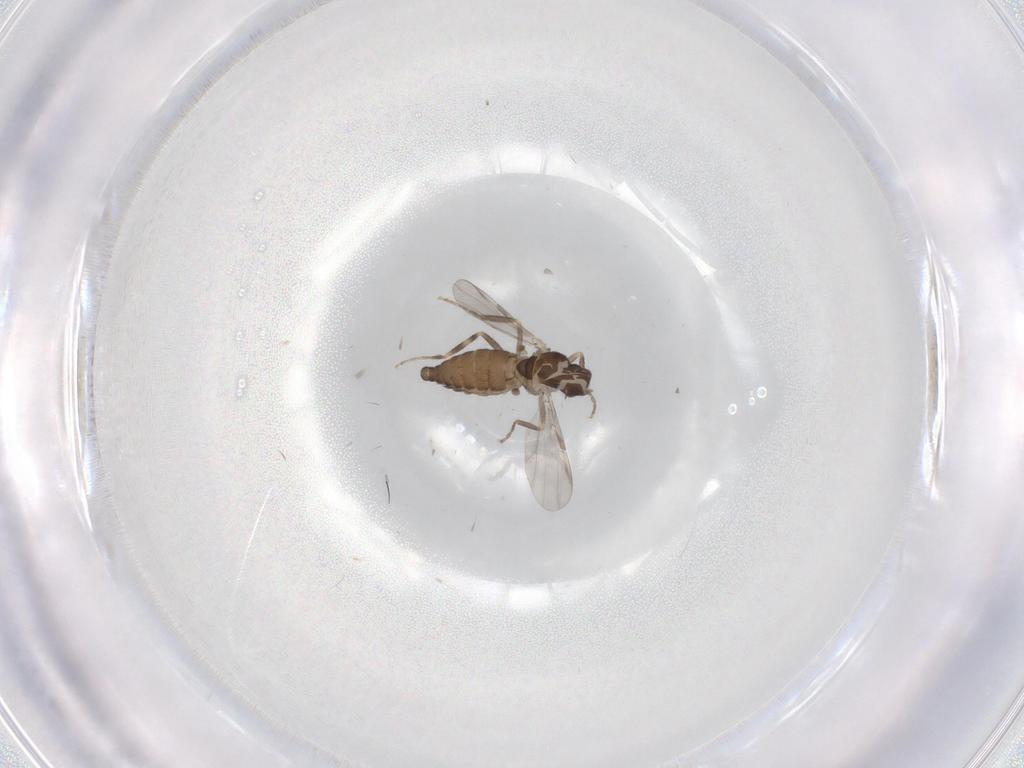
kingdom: Animalia
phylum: Arthropoda
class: Insecta
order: Diptera
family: Ceratopogonidae
